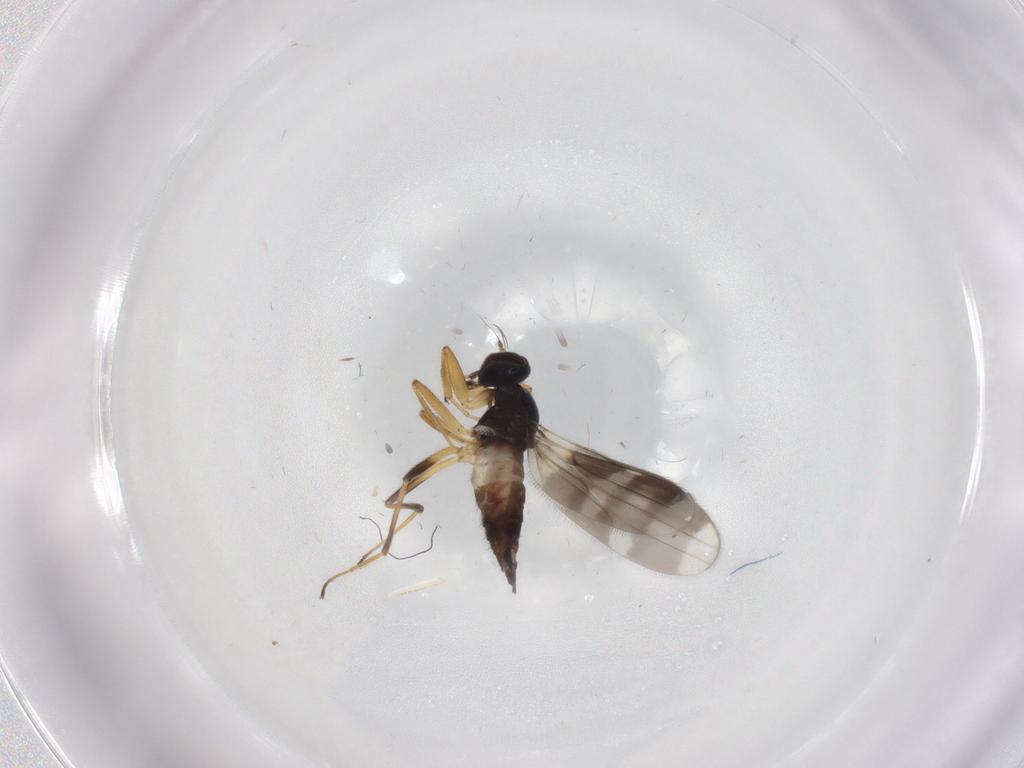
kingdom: Animalia
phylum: Arthropoda
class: Insecta
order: Diptera
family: Hybotidae
